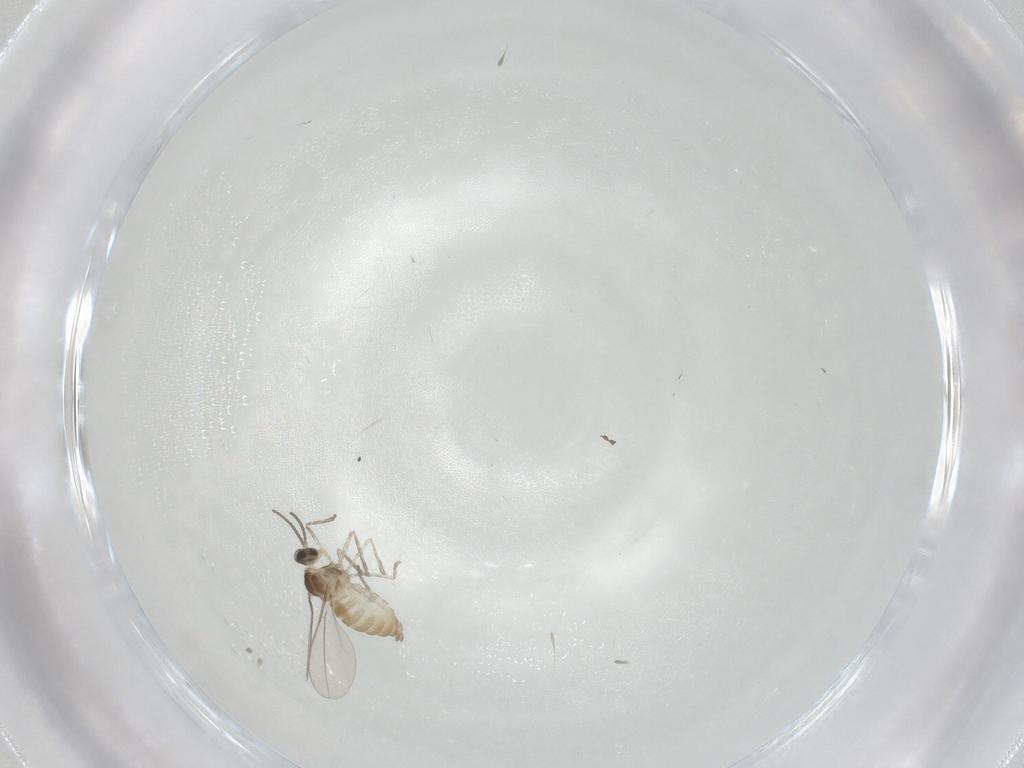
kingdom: Animalia
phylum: Arthropoda
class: Insecta
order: Diptera
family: Cecidomyiidae
